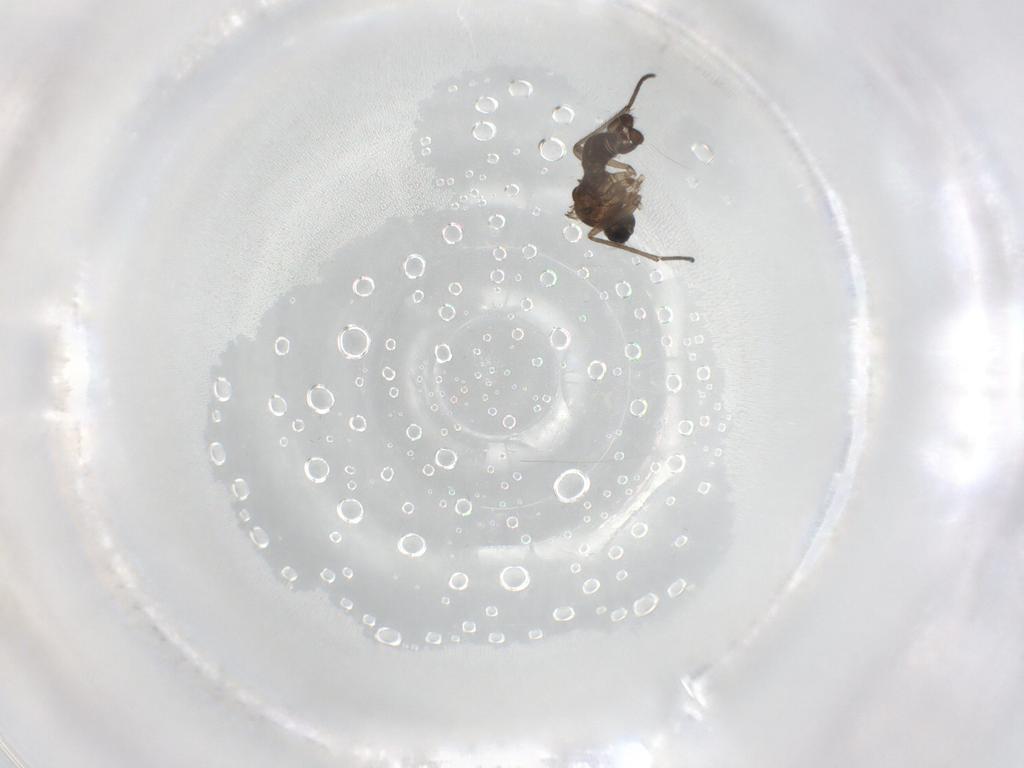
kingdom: Animalia
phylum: Arthropoda
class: Insecta
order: Diptera
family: Sciaridae
